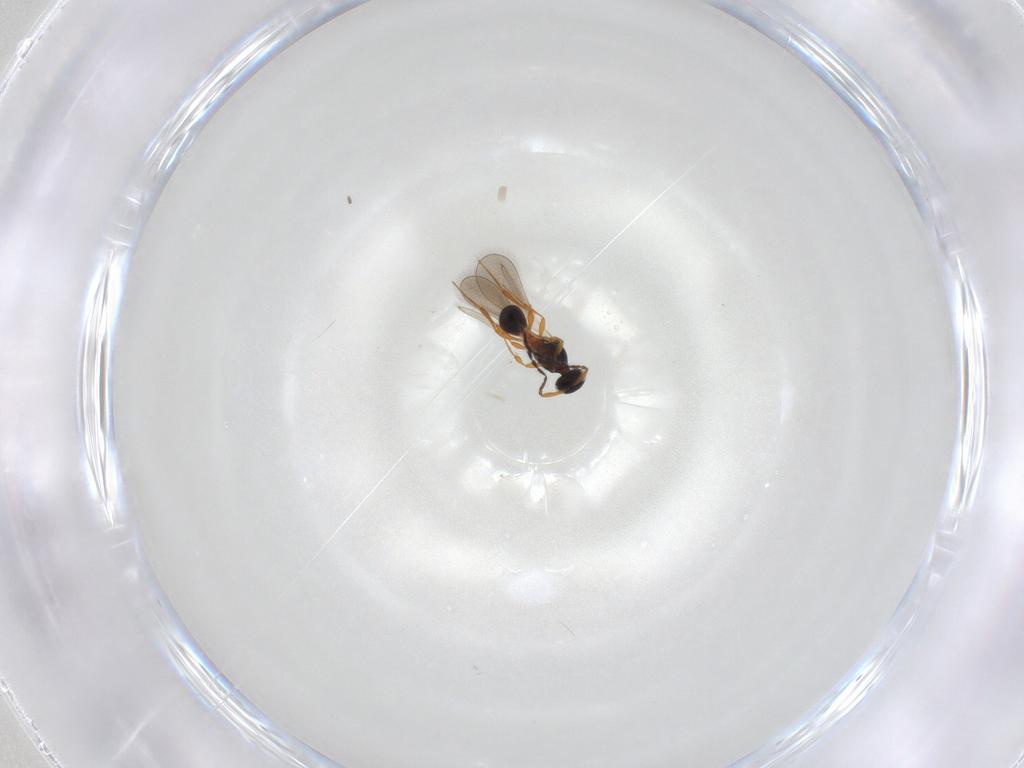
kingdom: Animalia
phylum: Arthropoda
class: Insecta
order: Hymenoptera
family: Platygastridae
